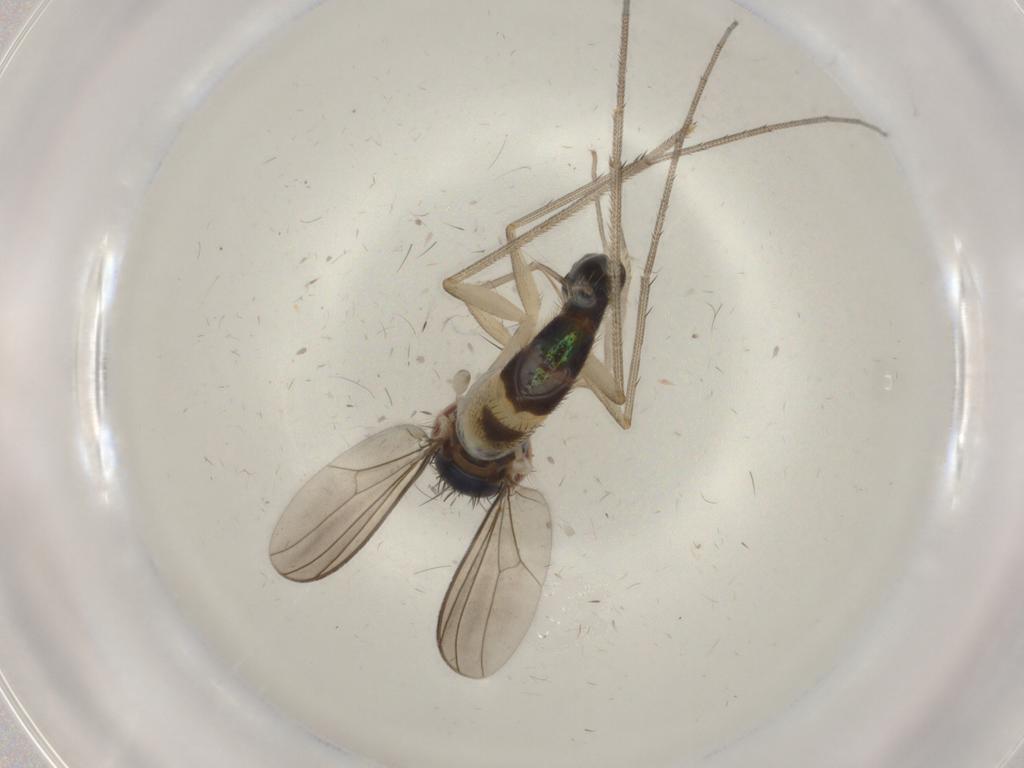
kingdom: Animalia
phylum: Arthropoda
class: Insecta
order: Diptera
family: Dolichopodidae
